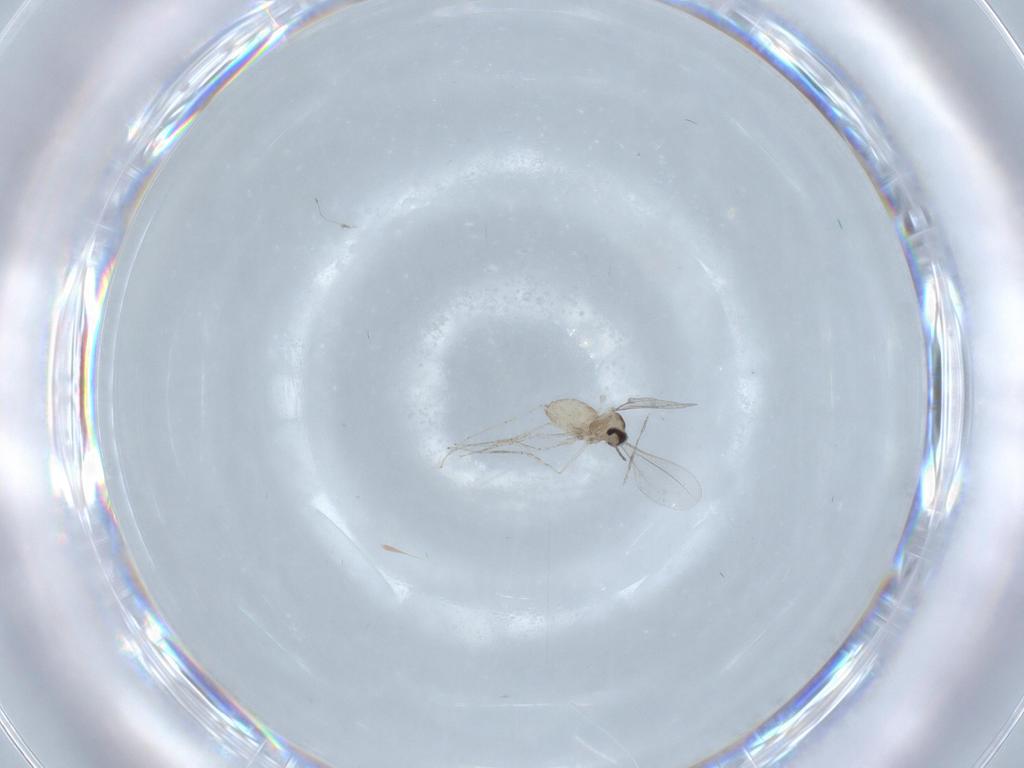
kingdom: Animalia
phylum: Arthropoda
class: Insecta
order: Diptera
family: Cecidomyiidae
